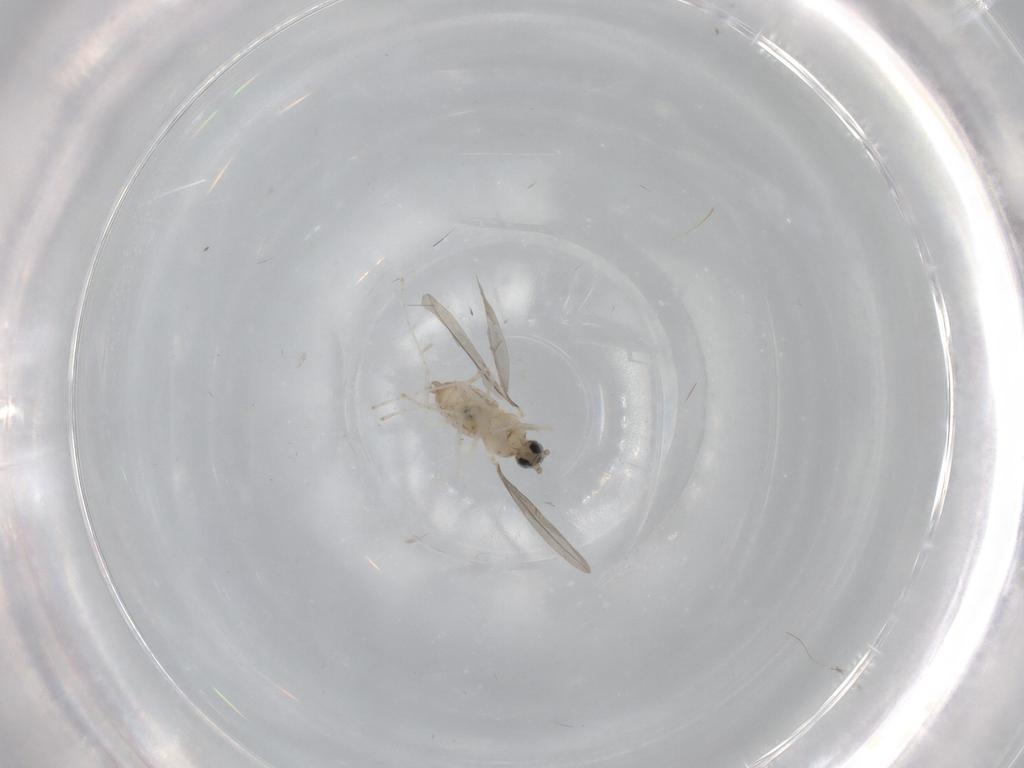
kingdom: Animalia
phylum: Arthropoda
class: Insecta
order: Diptera
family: Cecidomyiidae
